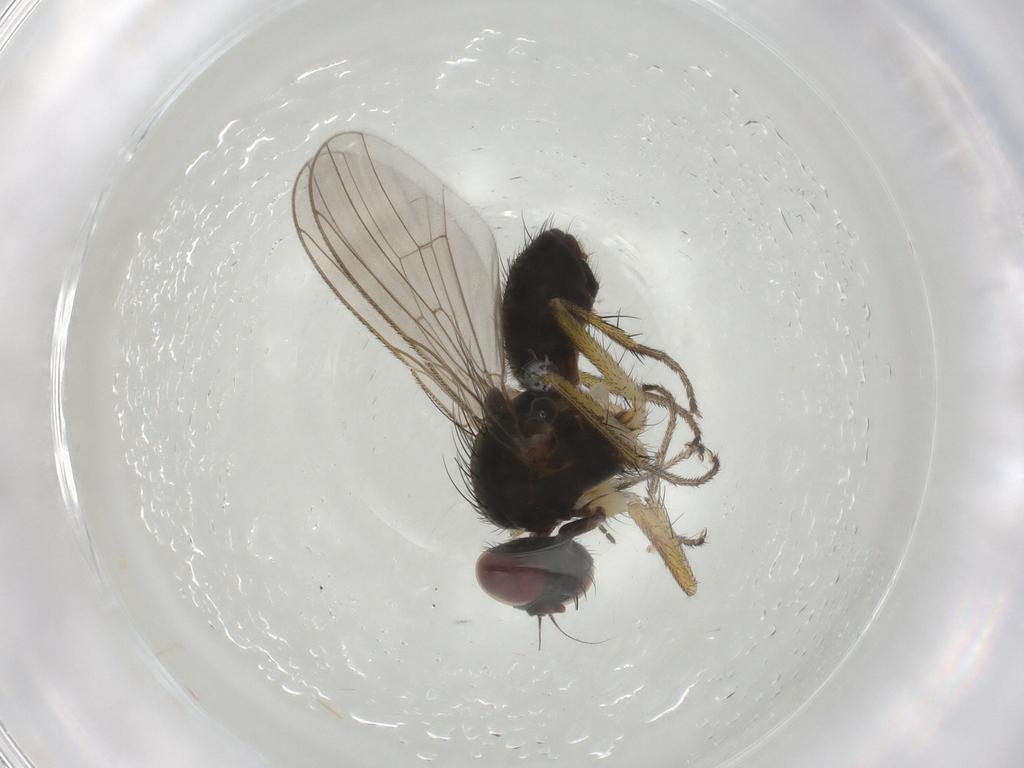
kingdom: Animalia
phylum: Arthropoda
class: Insecta
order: Diptera
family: Muscidae
